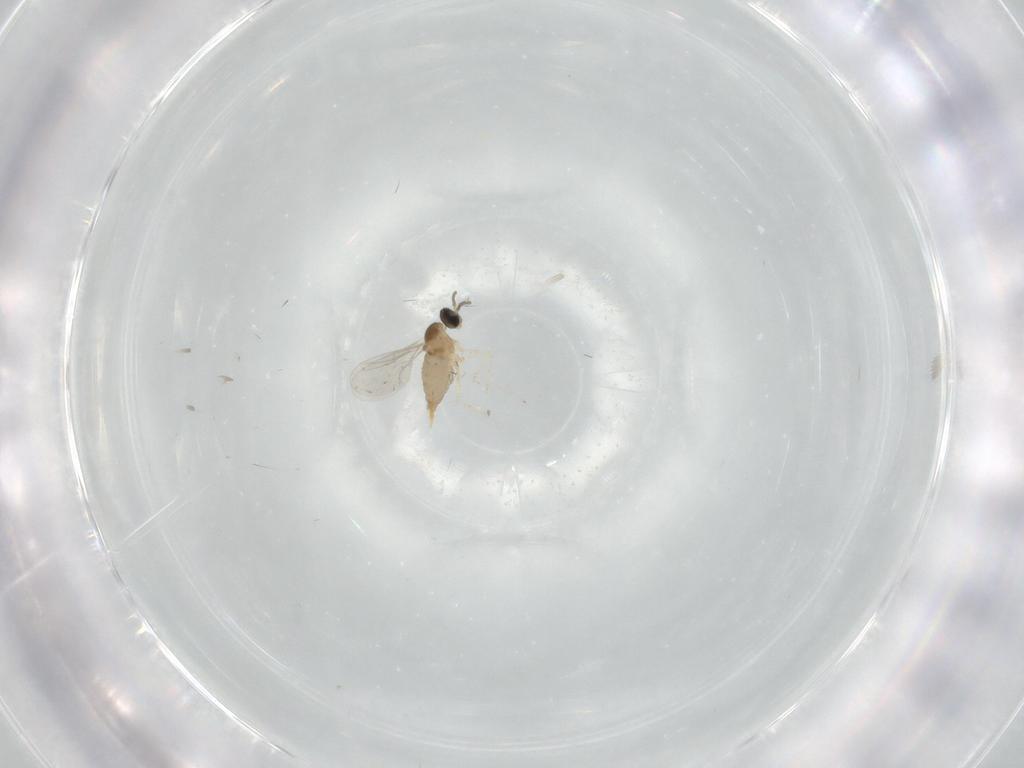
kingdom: Animalia
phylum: Arthropoda
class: Insecta
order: Diptera
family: Cecidomyiidae
